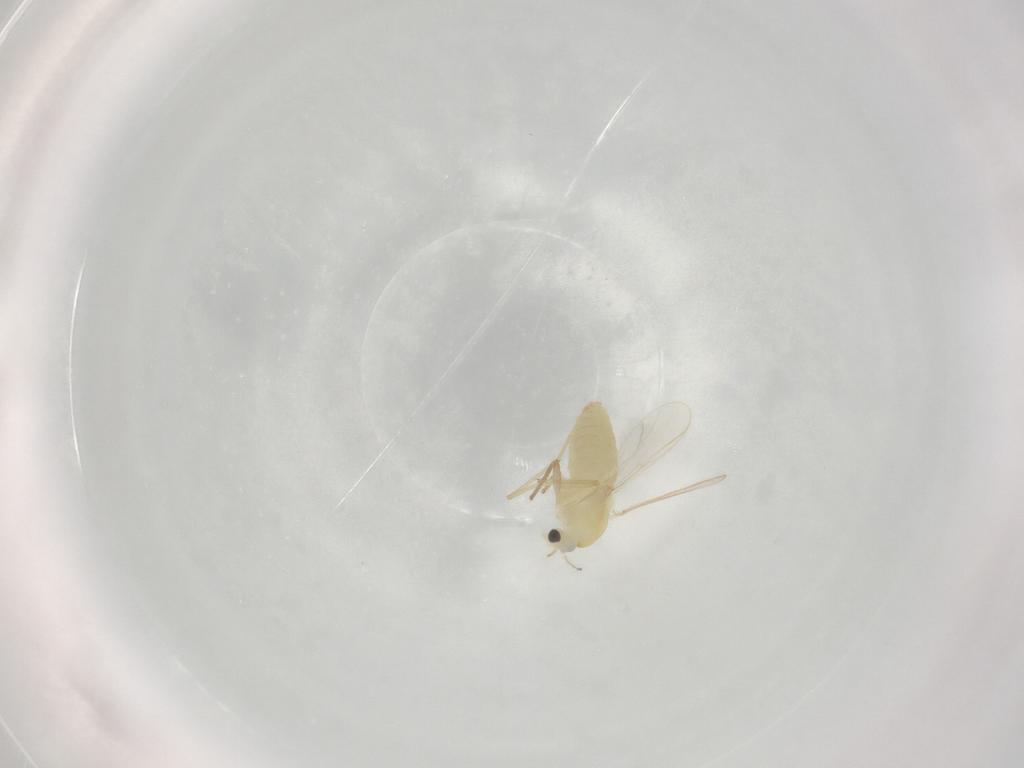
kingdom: Animalia
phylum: Arthropoda
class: Insecta
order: Diptera
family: Chironomidae
